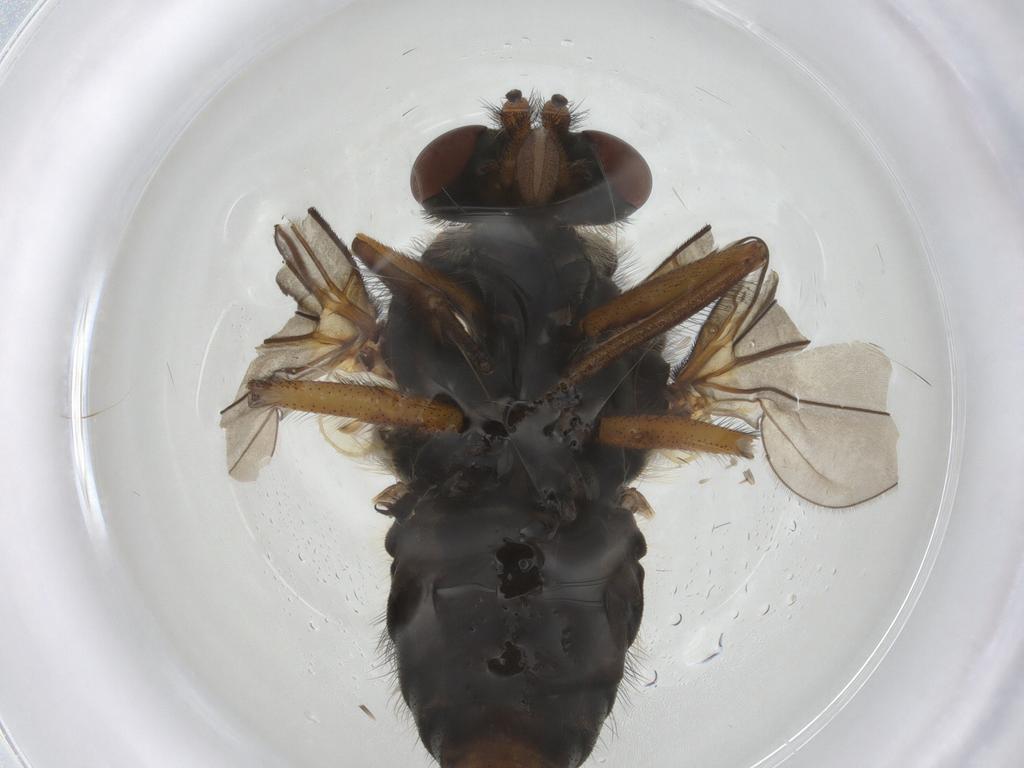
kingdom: Animalia
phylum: Arthropoda
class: Insecta
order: Diptera
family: Rhagionidae
